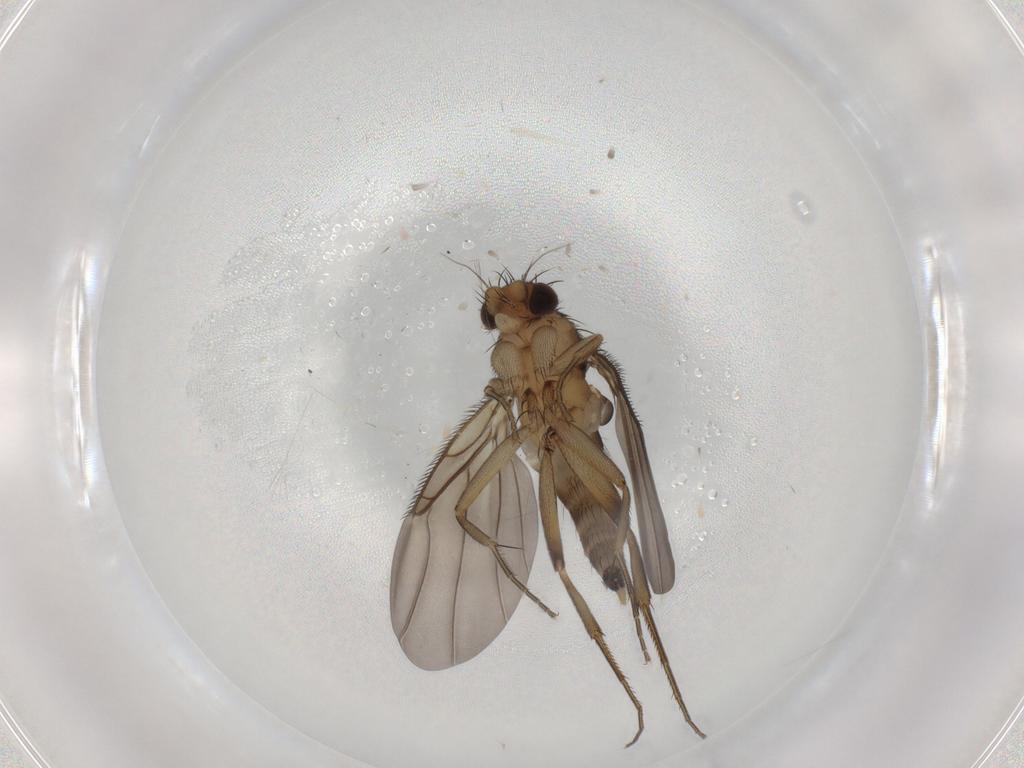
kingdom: Animalia
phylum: Arthropoda
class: Insecta
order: Diptera
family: Phoridae
